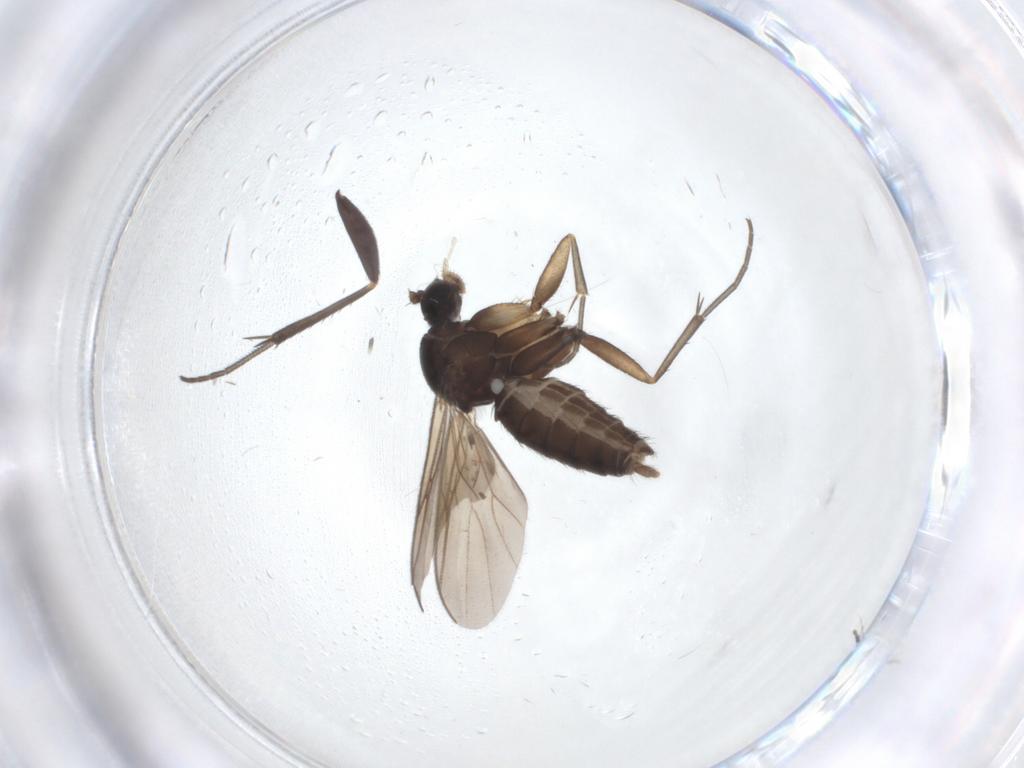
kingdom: Animalia
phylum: Arthropoda
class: Insecta
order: Diptera
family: Mycetophilidae
